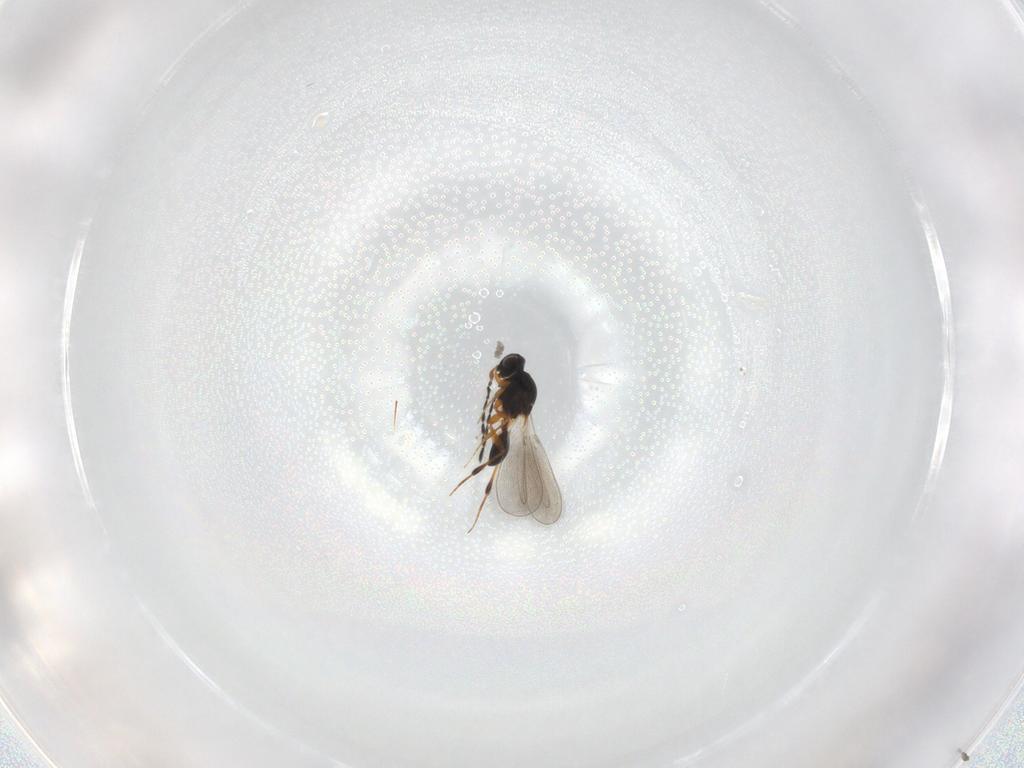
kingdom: Animalia
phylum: Arthropoda
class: Insecta
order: Hymenoptera
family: Platygastridae
